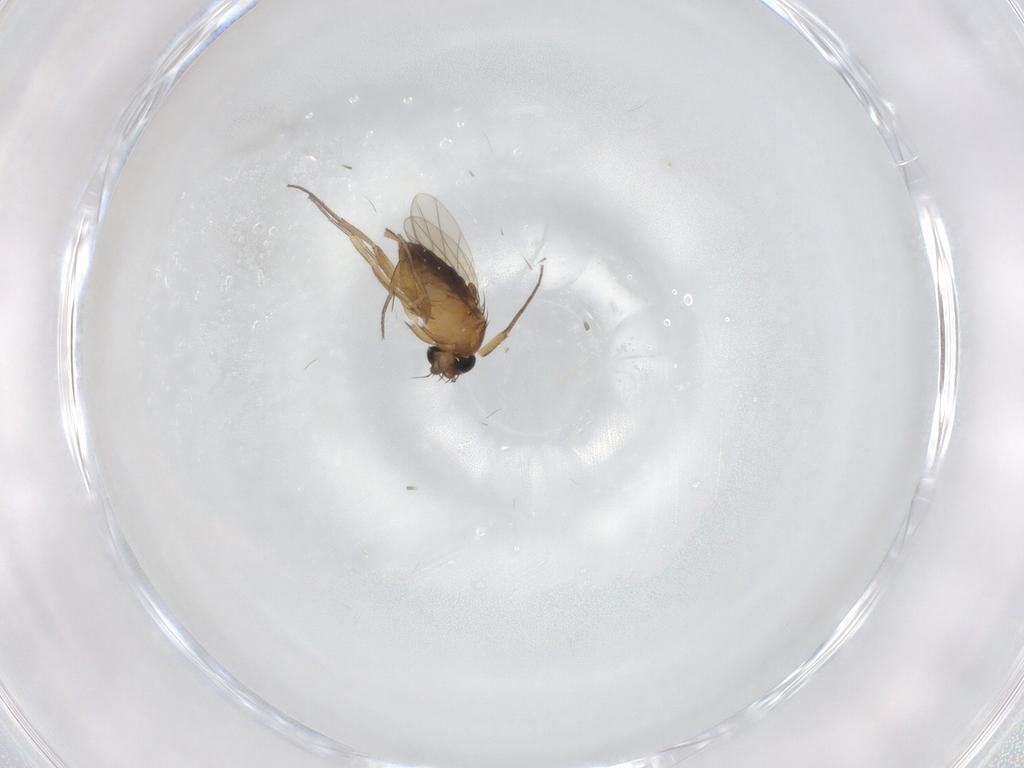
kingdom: Animalia
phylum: Arthropoda
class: Insecta
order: Diptera
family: Phoridae
